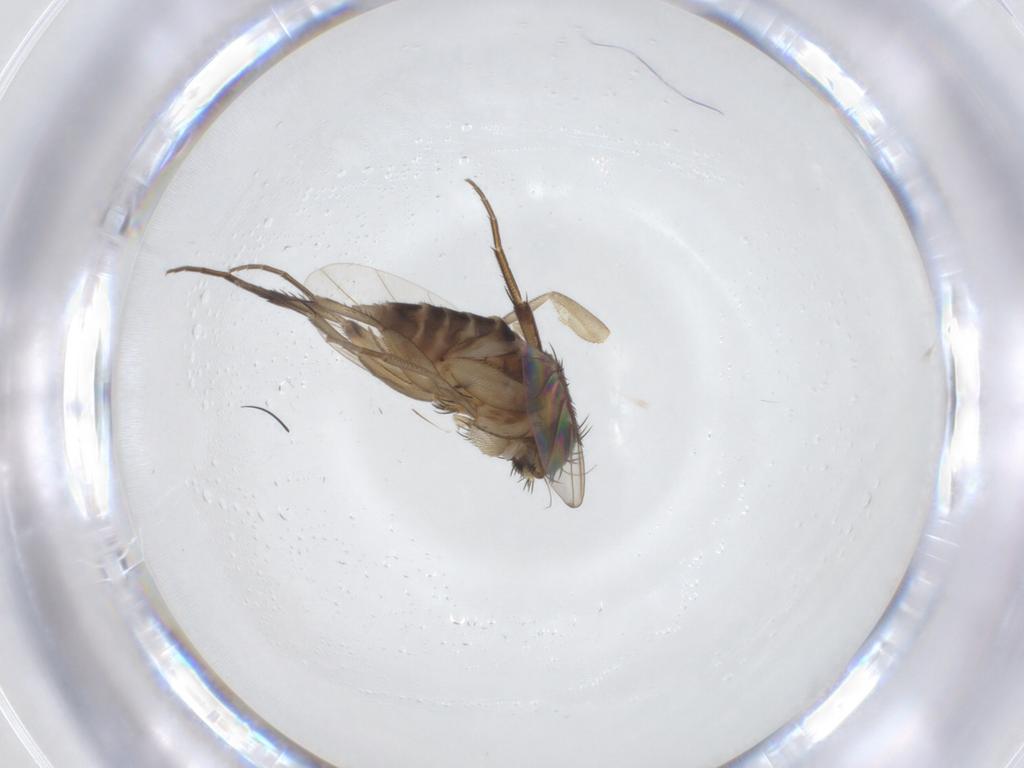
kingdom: Animalia
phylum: Arthropoda
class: Insecta
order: Diptera
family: Phoridae
